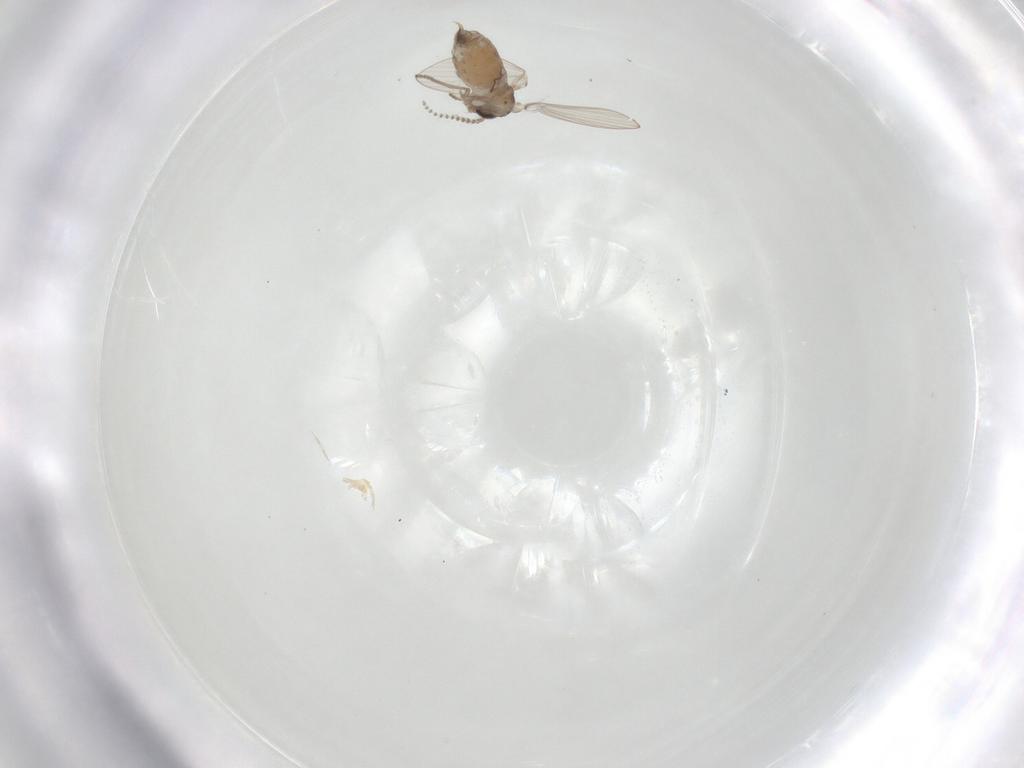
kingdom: Animalia
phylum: Arthropoda
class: Insecta
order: Diptera
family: Psychodidae
